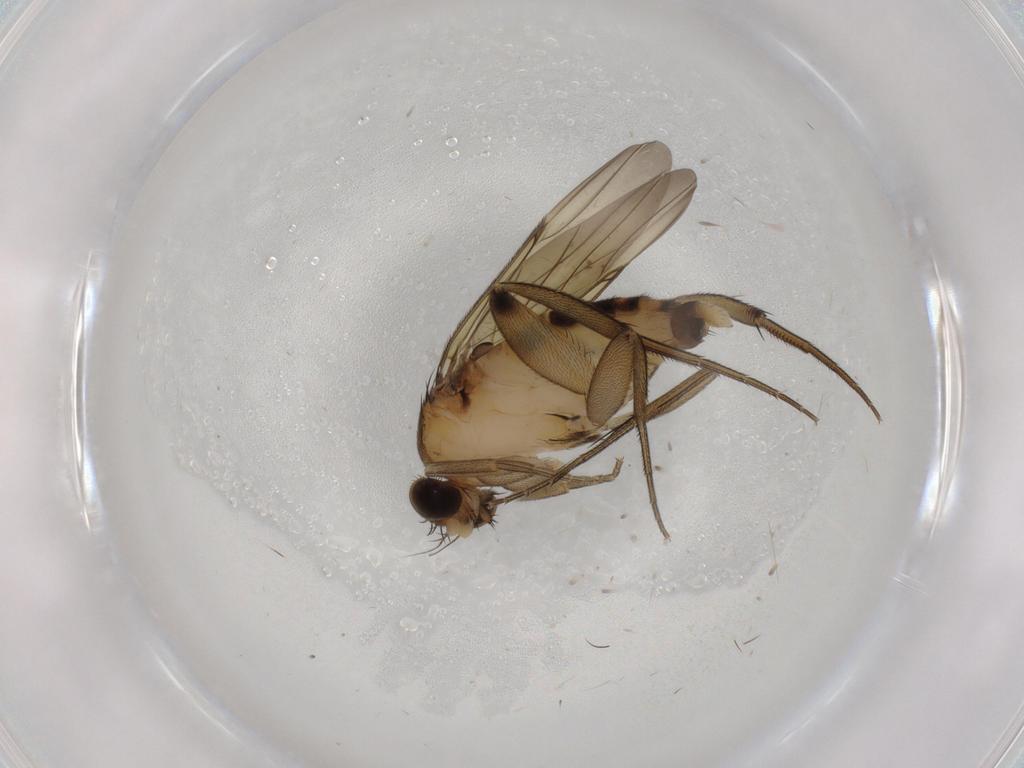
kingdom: Animalia
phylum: Arthropoda
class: Insecta
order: Diptera
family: Phoridae
